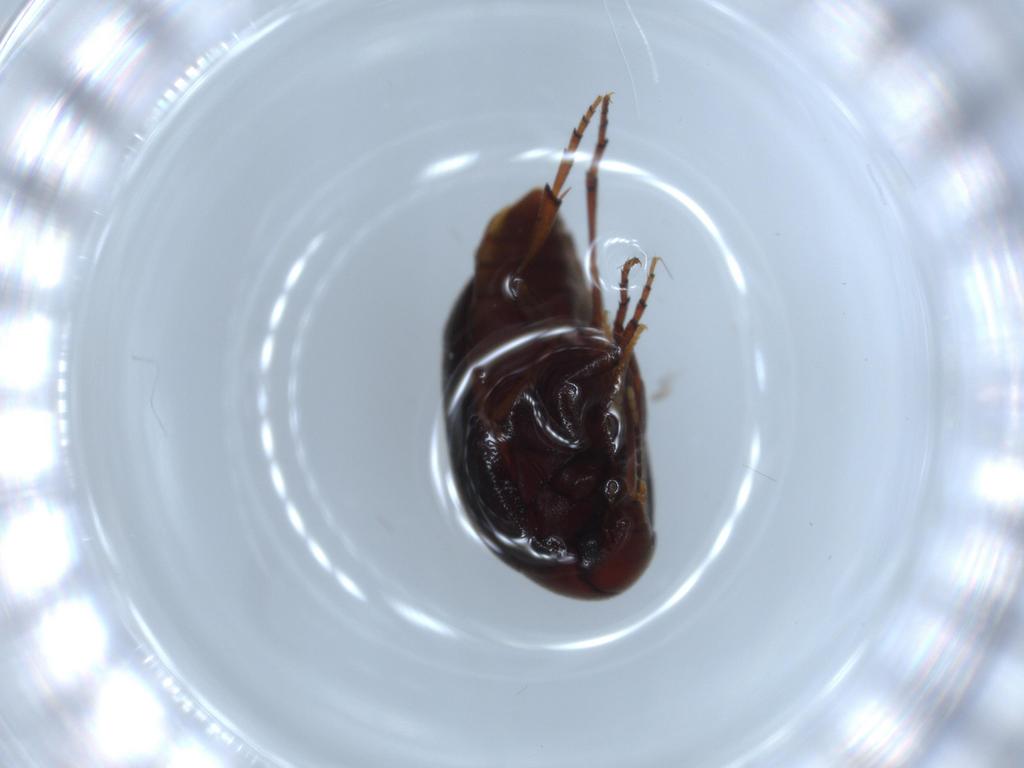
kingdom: Animalia
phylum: Arthropoda
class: Insecta
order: Coleoptera
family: Eucinetidae
